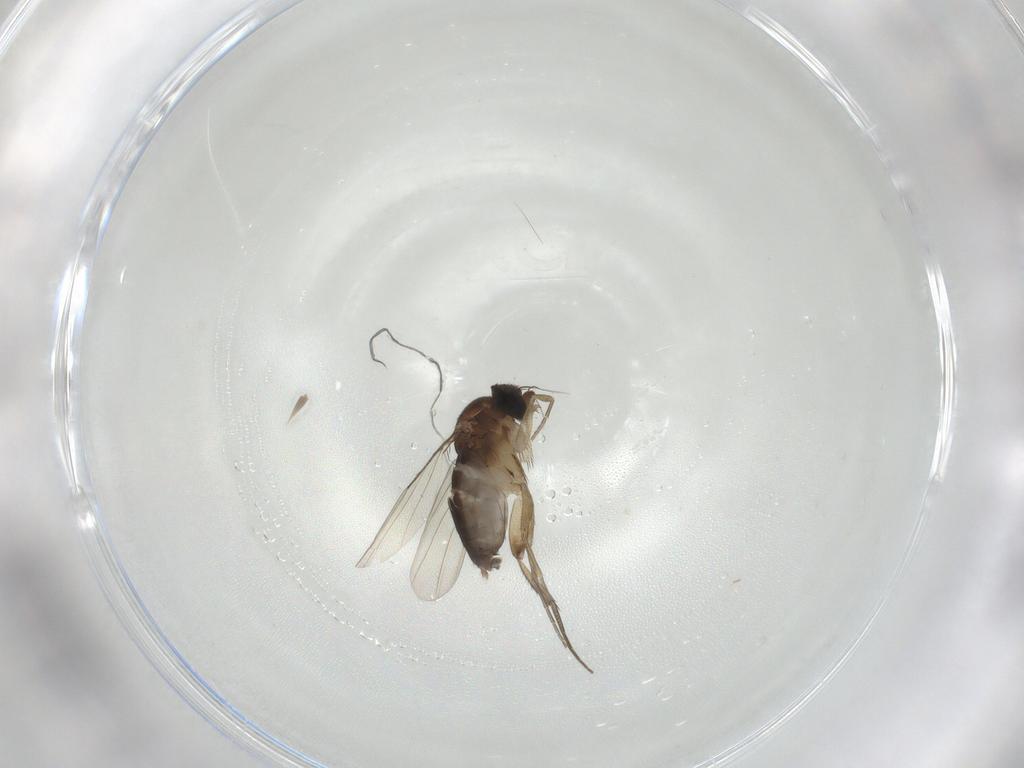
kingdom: Animalia
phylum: Arthropoda
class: Insecta
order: Diptera
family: Phoridae
